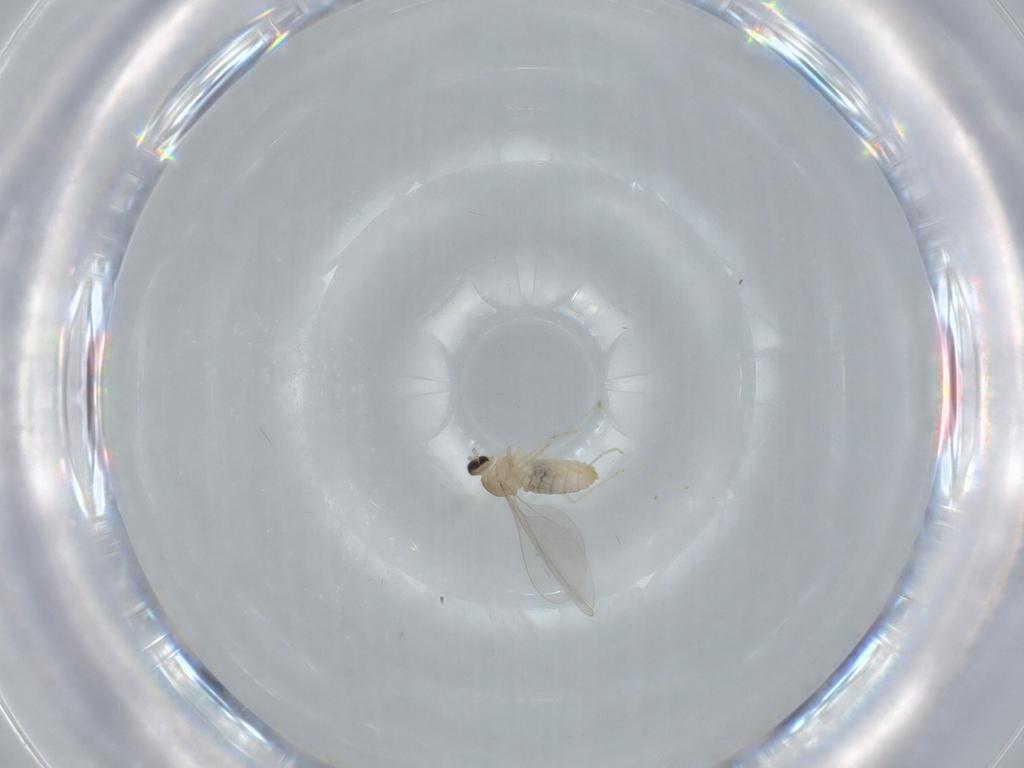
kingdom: Animalia
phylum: Arthropoda
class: Insecta
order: Diptera
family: Cecidomyiidae
